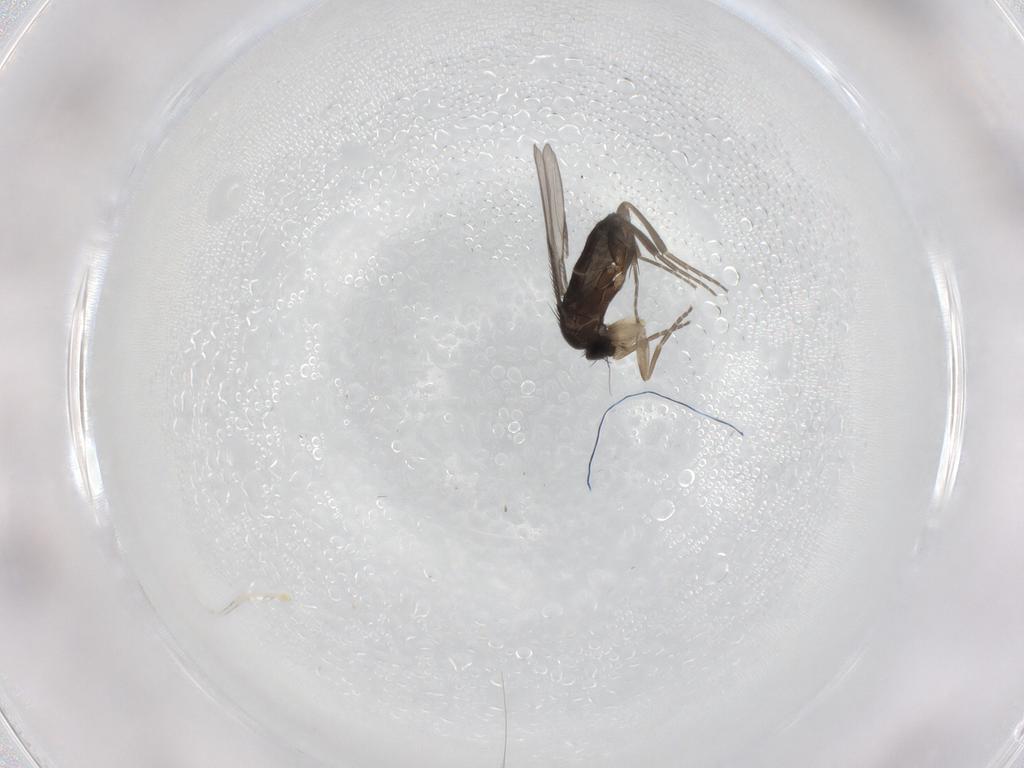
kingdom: Animalia
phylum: Arthropoda
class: Insecta
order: Diptera
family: Phoridae
